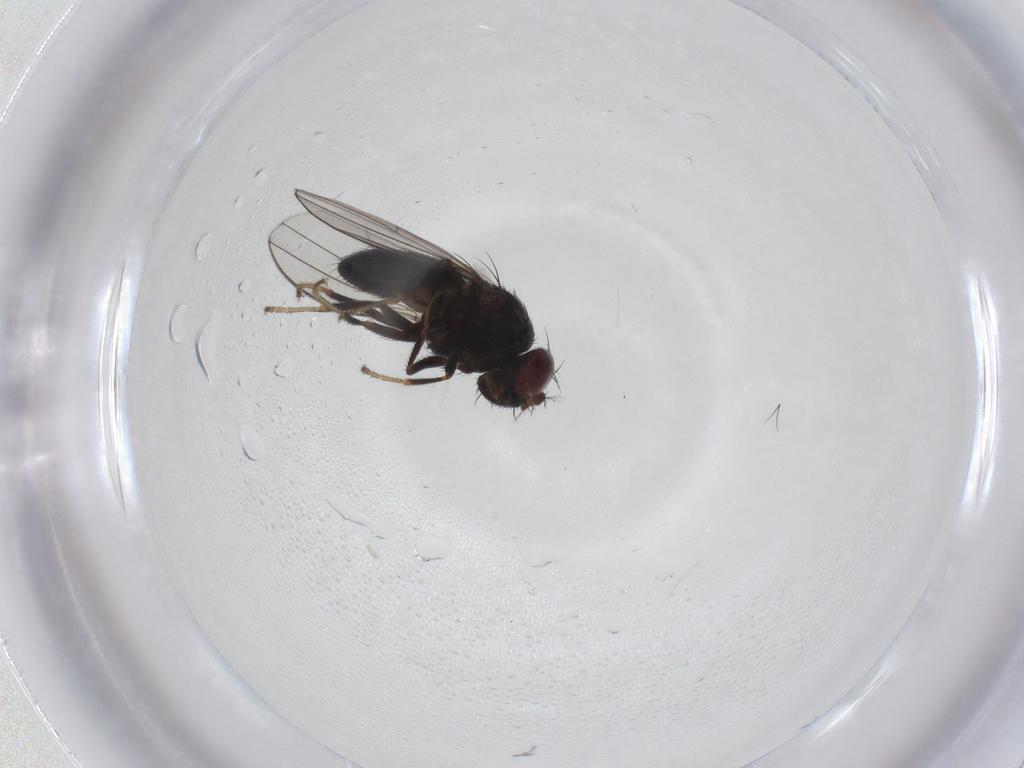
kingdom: Animalia
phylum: Arthropoda
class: Insecta
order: Diptera
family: Ephydridae
